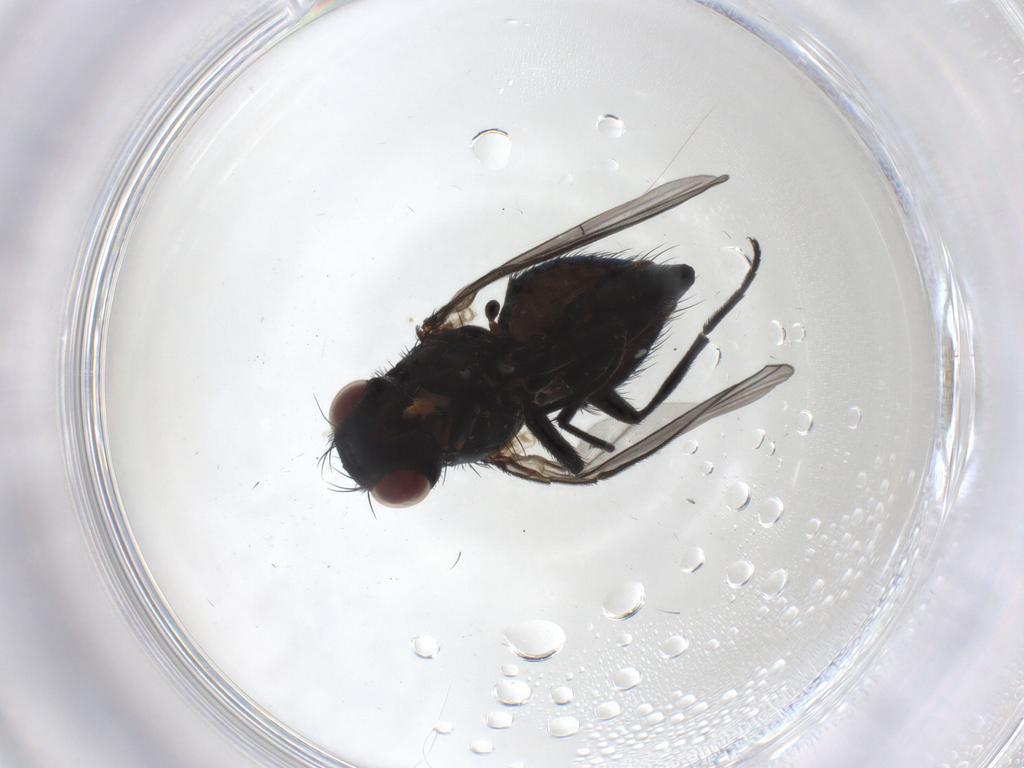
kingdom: Animalia
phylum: Arthropoda
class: Insecta
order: Diptera
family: Agromyzidae
